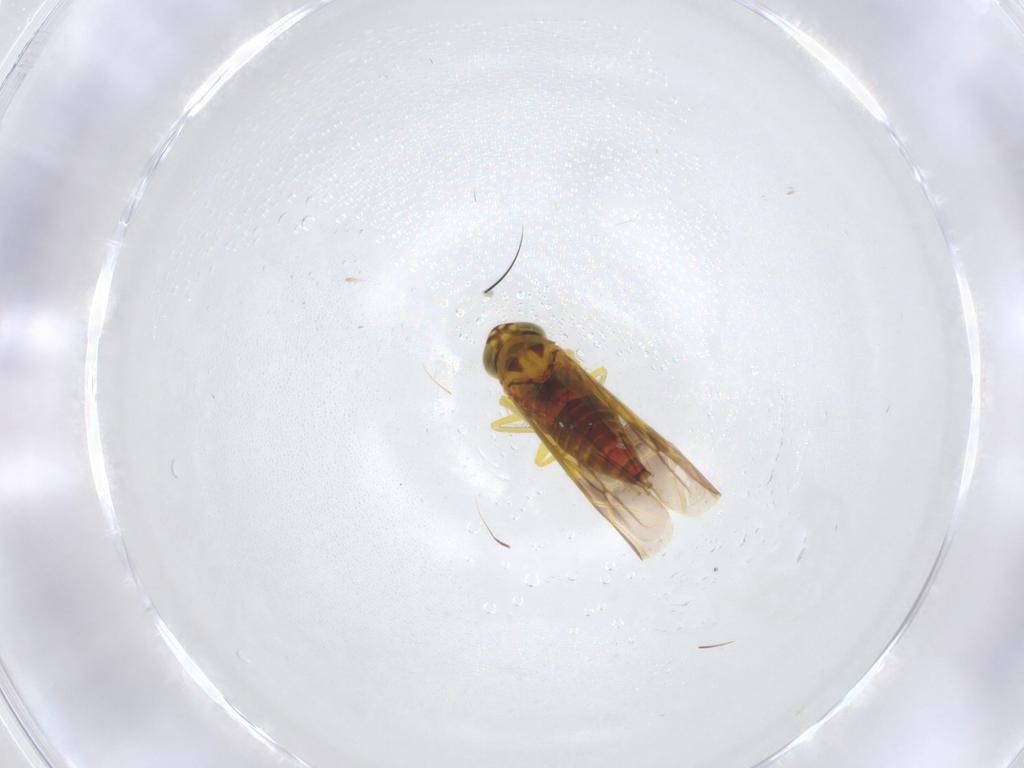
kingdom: Animalia
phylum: Arthropoda
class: Insecta
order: Hemiptera
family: Cicadellidae
